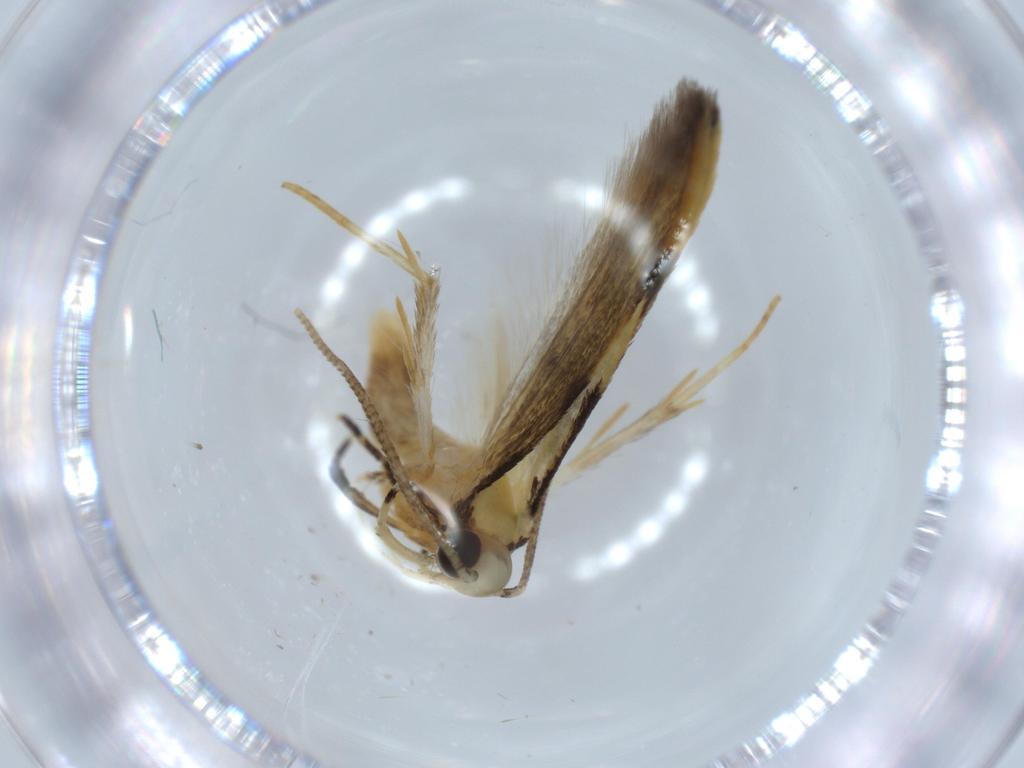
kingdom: Animalia
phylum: Arthropoda
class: Insecta
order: Lepidoptera
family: Autostichidae
